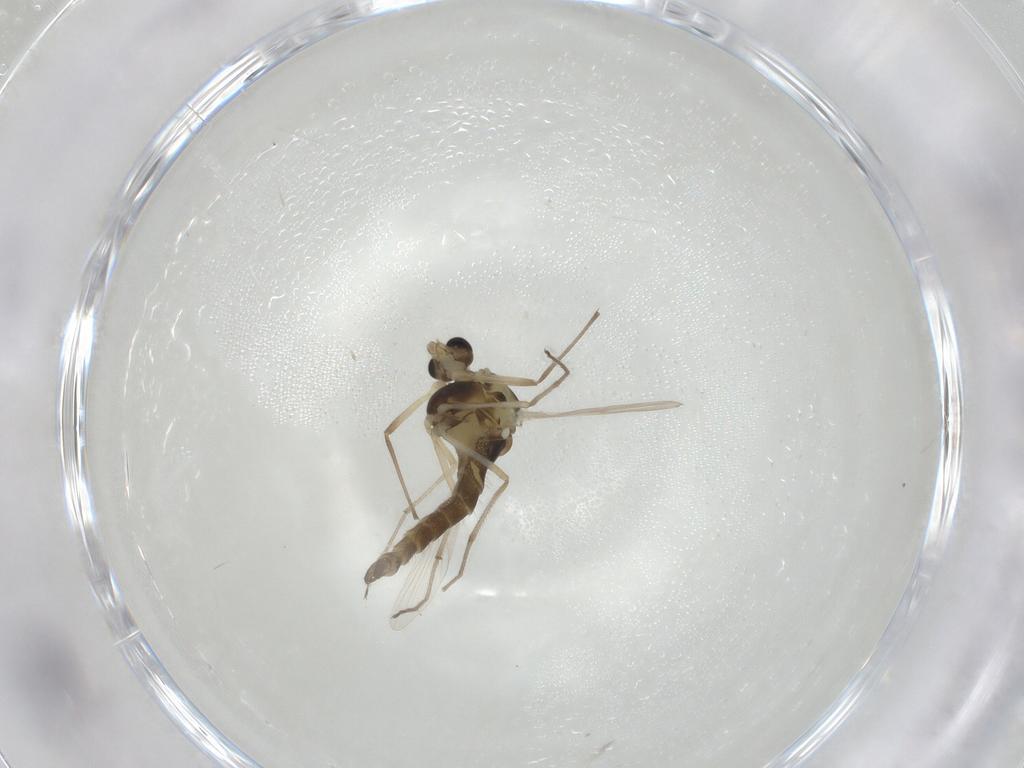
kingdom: Animalia
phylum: Arthropoda
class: Insecta
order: Diptera
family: Chironomidae
